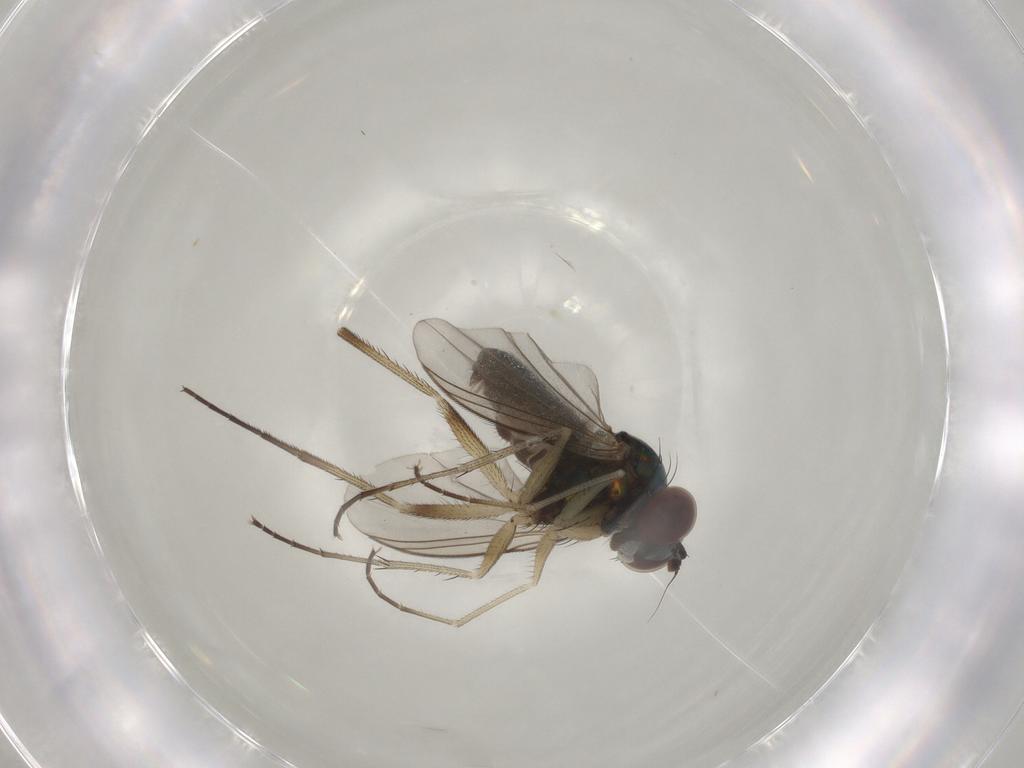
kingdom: Animalia
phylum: Arthropoda
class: Insecta
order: Diptera
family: Dolichopodidae
